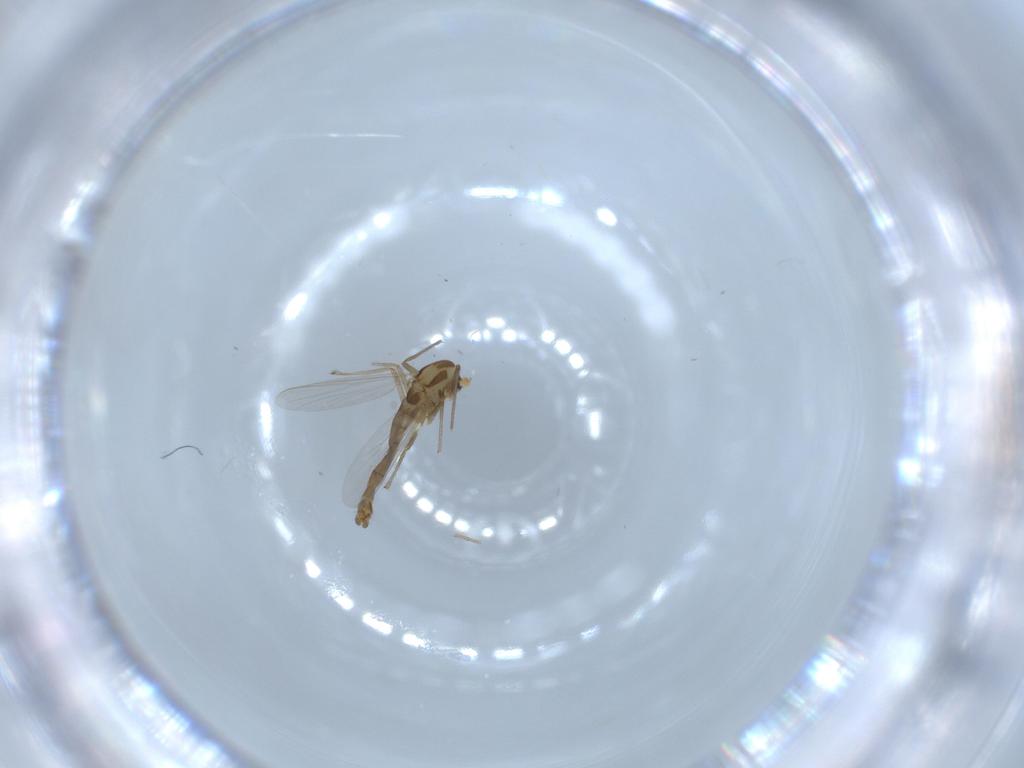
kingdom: Animalia
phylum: Arthropoda
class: Insecta
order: Diptera
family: Chironomidae
